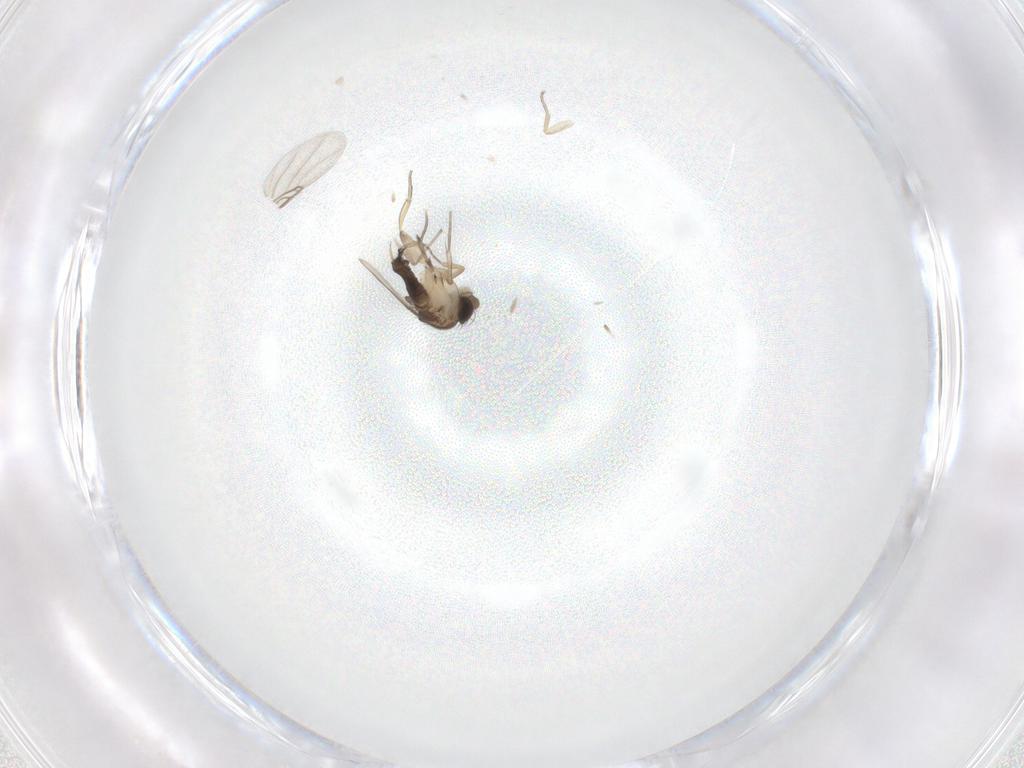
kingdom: Animalia
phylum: Arthropoda
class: Insecta
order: Diptera
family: Phoridae
